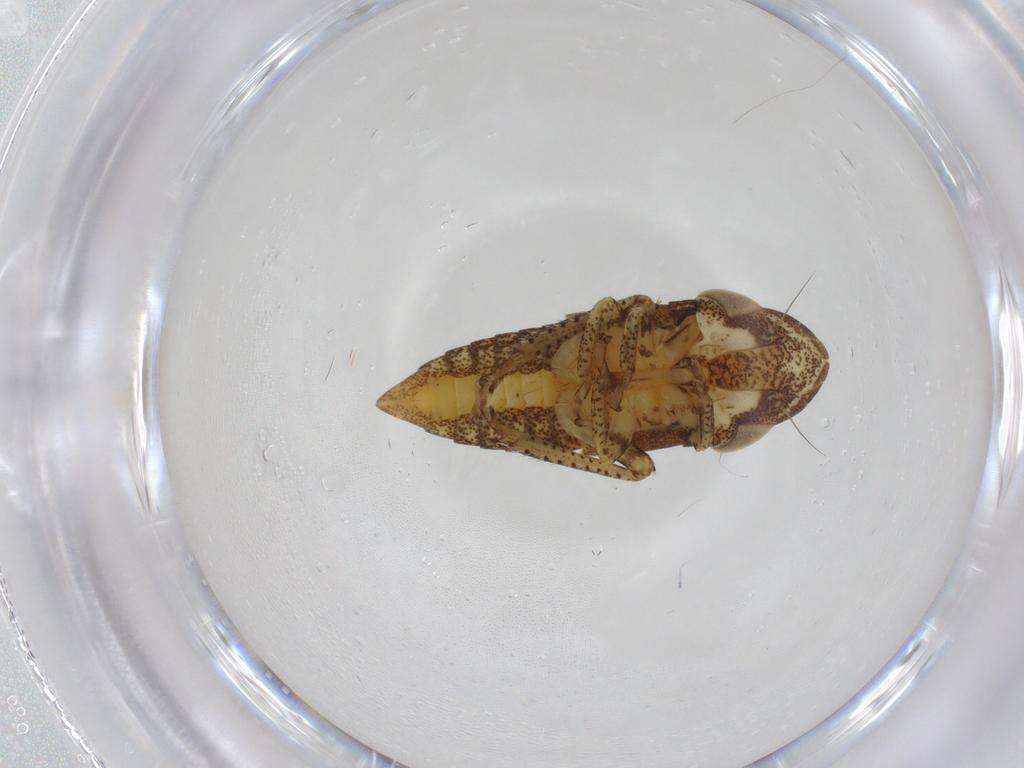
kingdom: Animalia
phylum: Arthropoda
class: Insecta
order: Hemiptera
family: Cicadellidae
